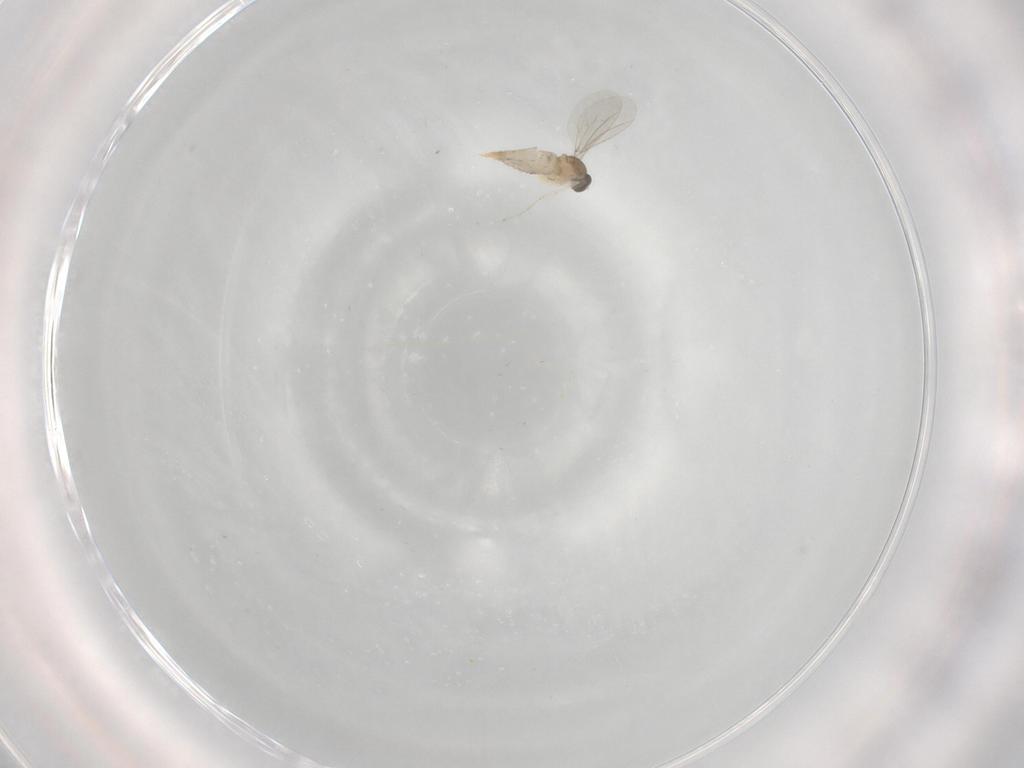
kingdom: Animalia
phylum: Arthropoda
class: Insecta
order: Diptera
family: Cecidomyiidae
